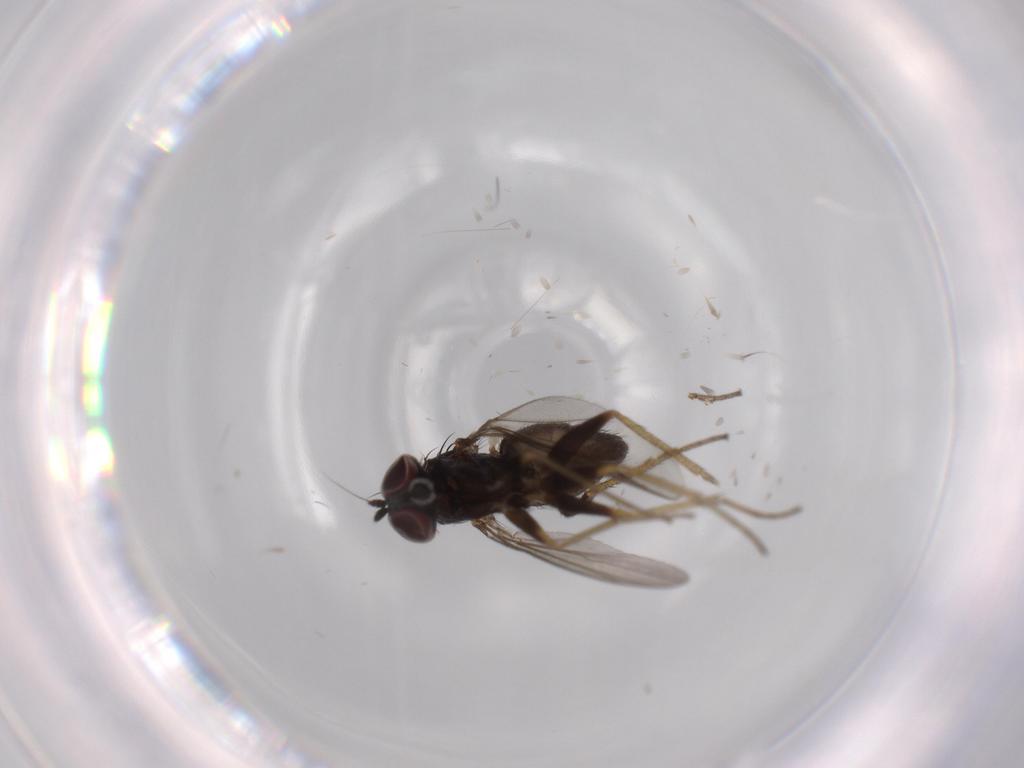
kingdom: Animalia
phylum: Arthropoda
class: Insecta
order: Diptera
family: Dolichopodidae
